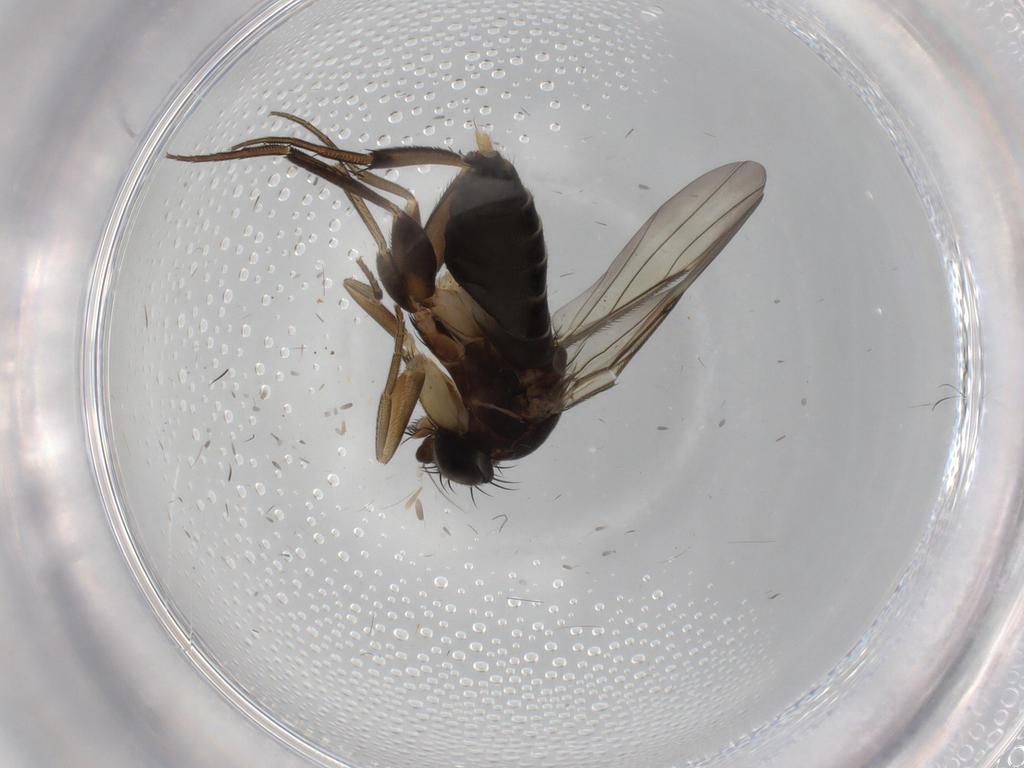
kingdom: Animalia
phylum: Arthropoda
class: Insecta
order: Diptera
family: Phoridae
